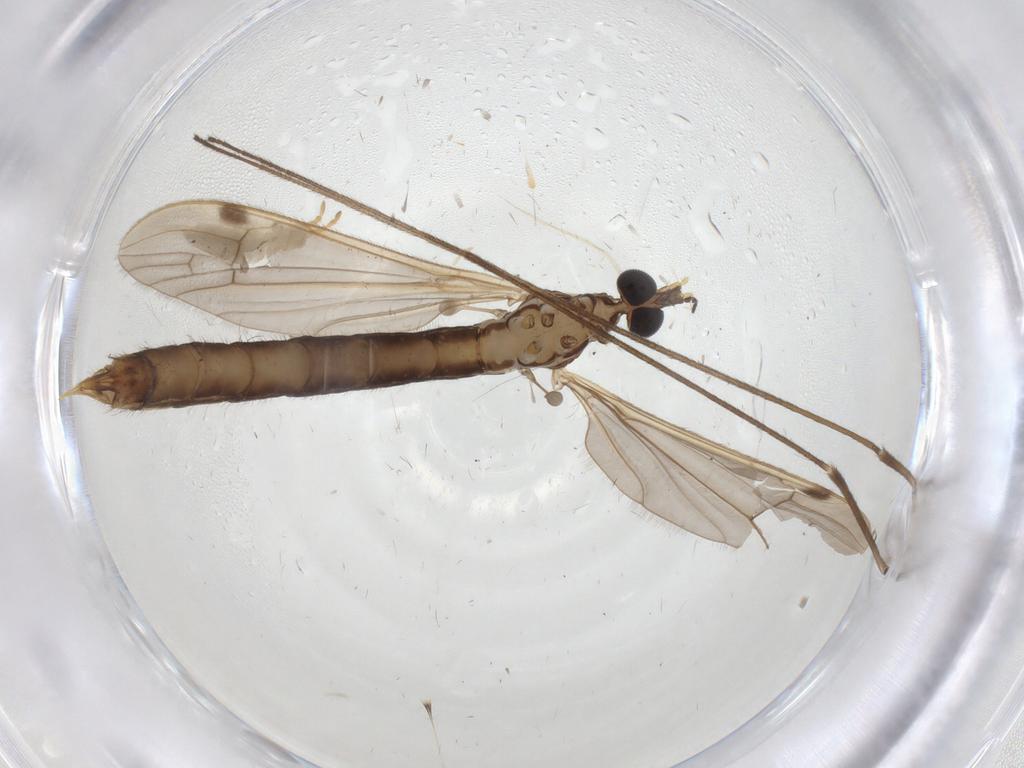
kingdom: Animalia
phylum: Arthropoda
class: Insecta
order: Diptera
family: Limoniidae
